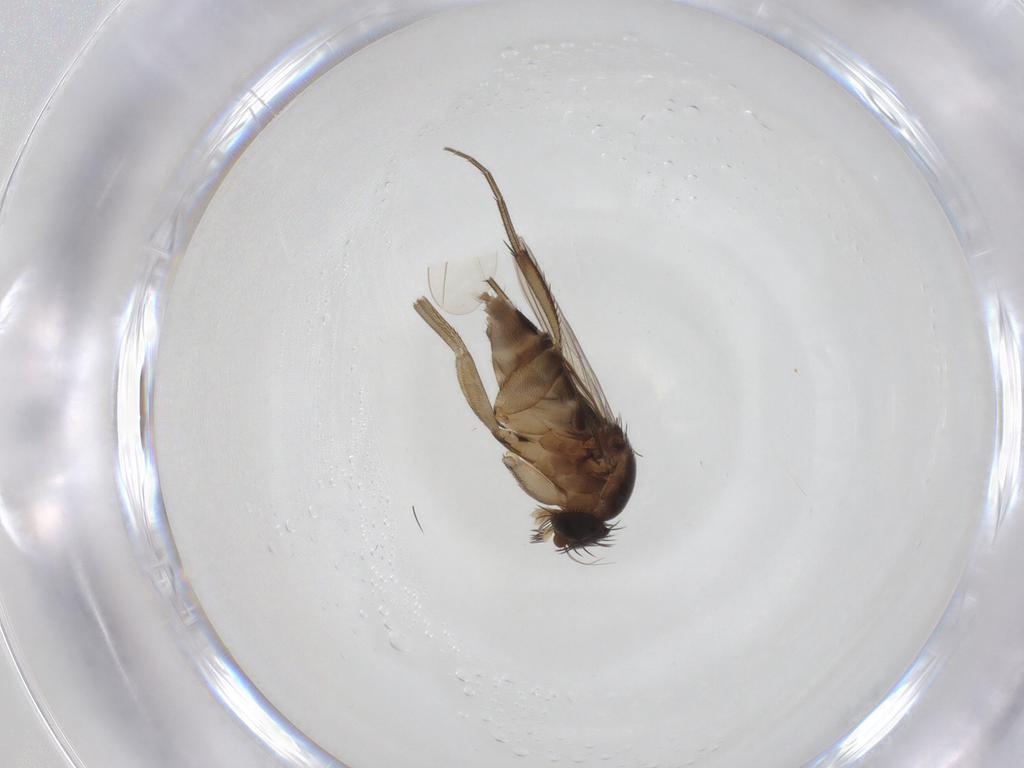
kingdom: Animalia
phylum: Arthropoda
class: Insecta
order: Diptera
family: Phoridae
